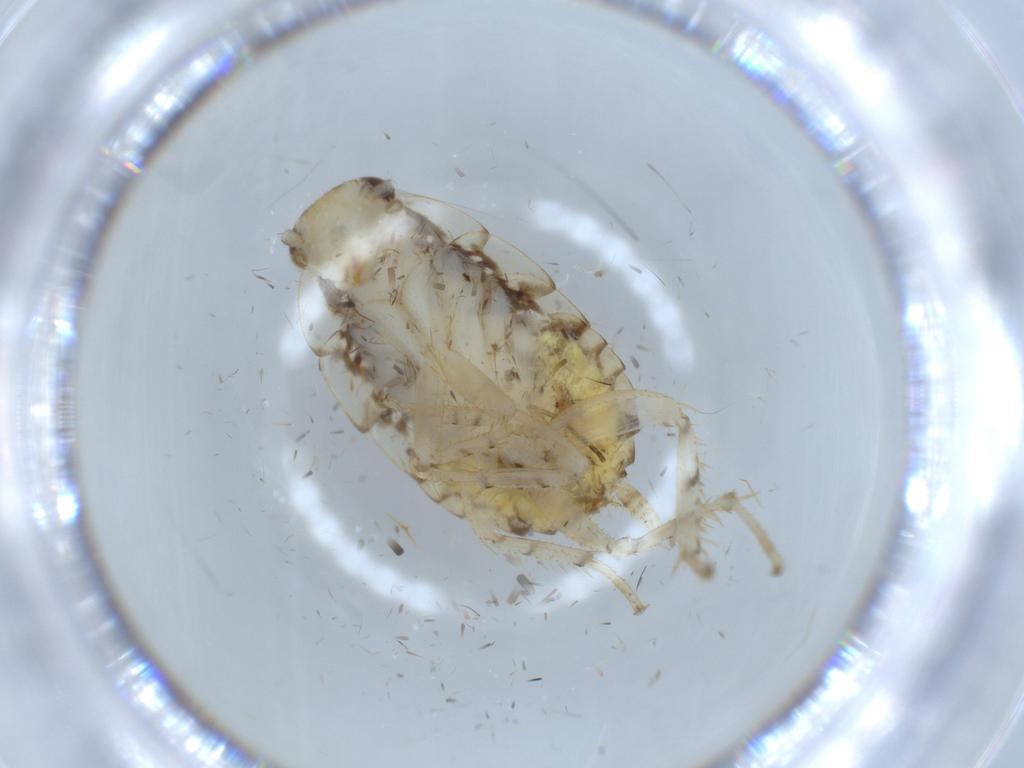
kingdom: Animalia
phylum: Arthropoda
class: Insecta
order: Blattodea
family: Ectobiidae
